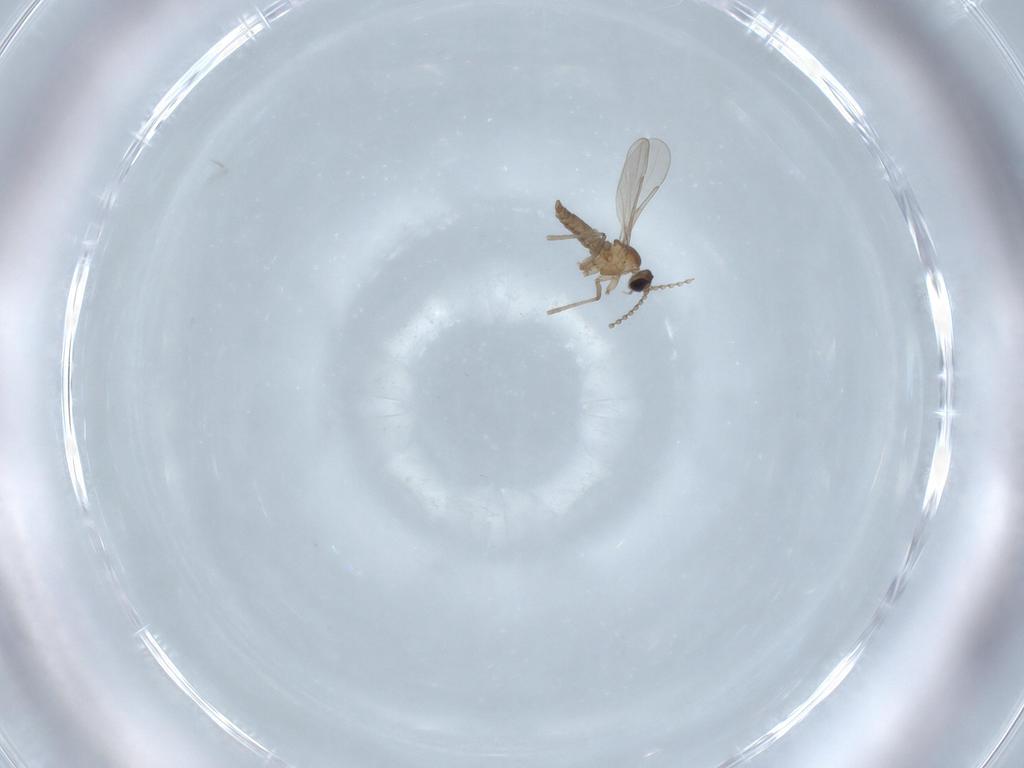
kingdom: Animalia
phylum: Arthropoda
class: Insecta
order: Diptera
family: Cecidomyiidae
